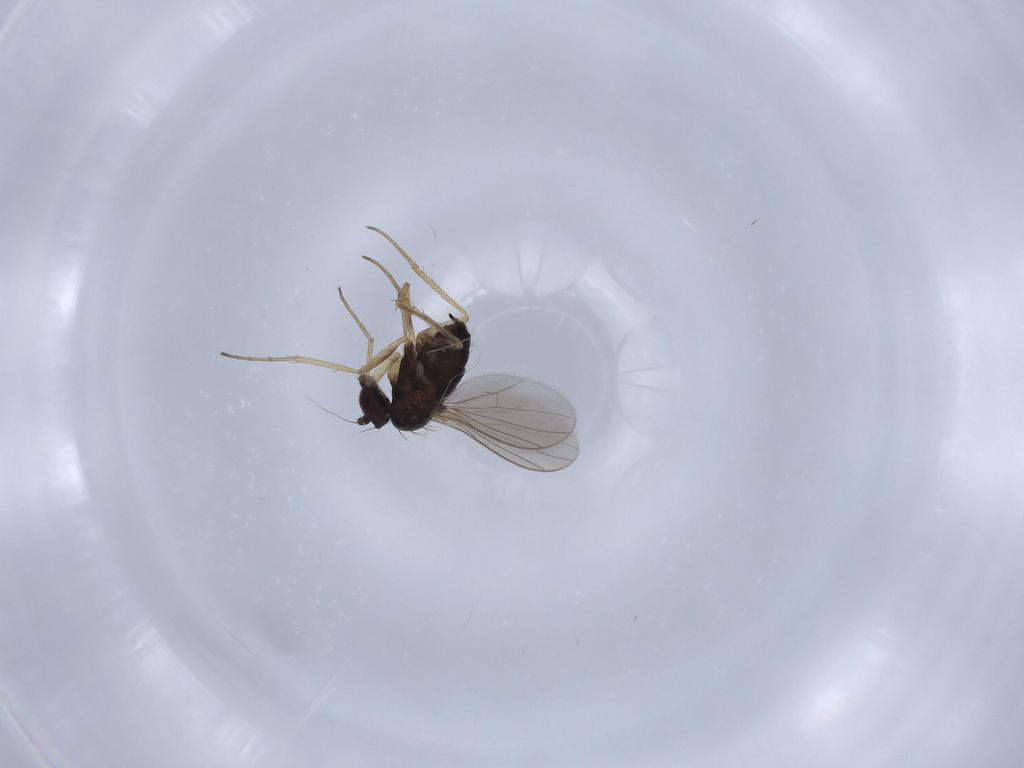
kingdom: Animalia
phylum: Arthropoda
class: Insecta
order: Diptera
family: Dolichopodidae
